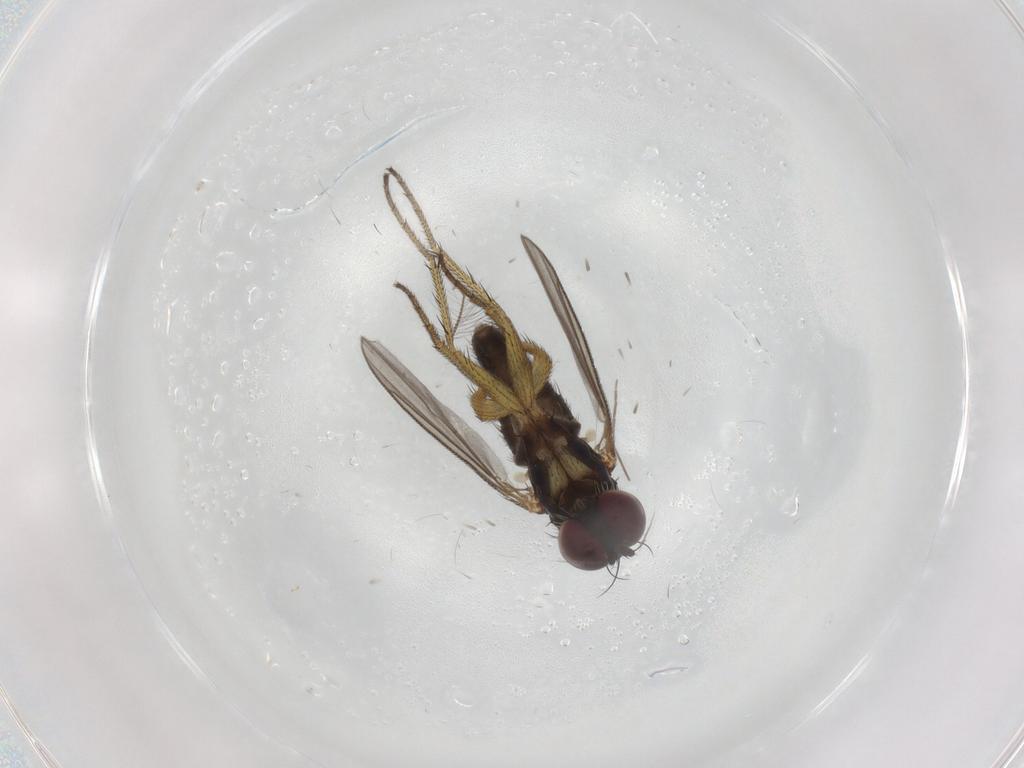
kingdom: Animalia
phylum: Arthropoda
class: Insecta
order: Diptera
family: Dolichopodidae
